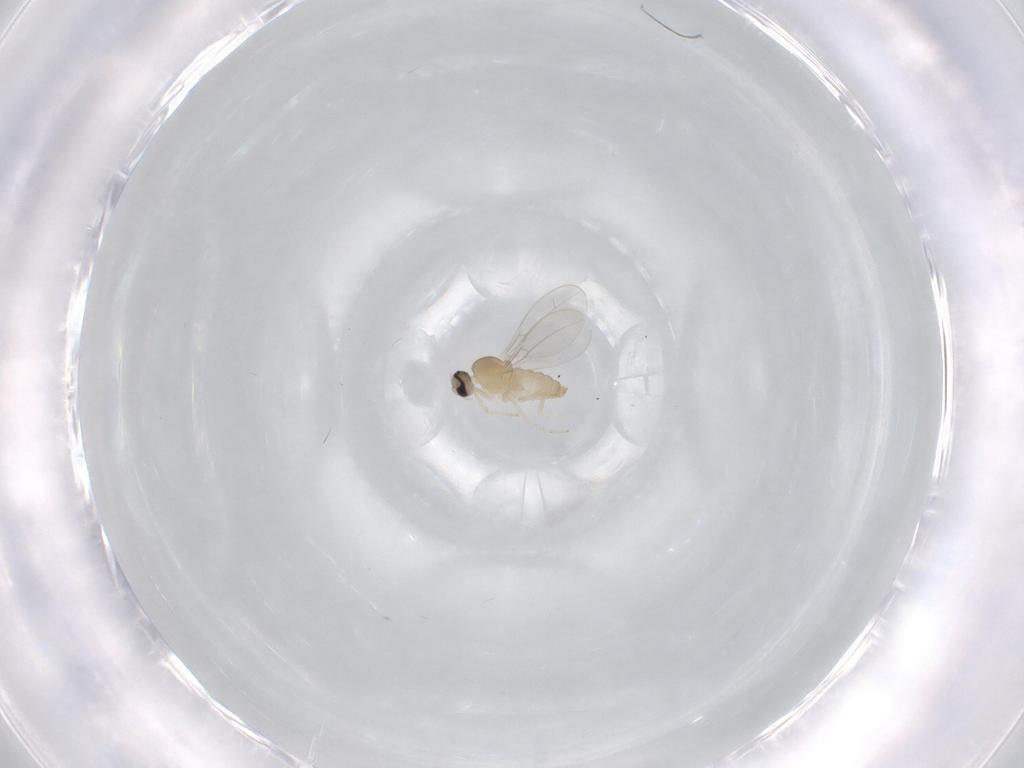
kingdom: Animalia
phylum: Arthropoda
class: Insecta
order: Diptera
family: Cecidomyiidae
